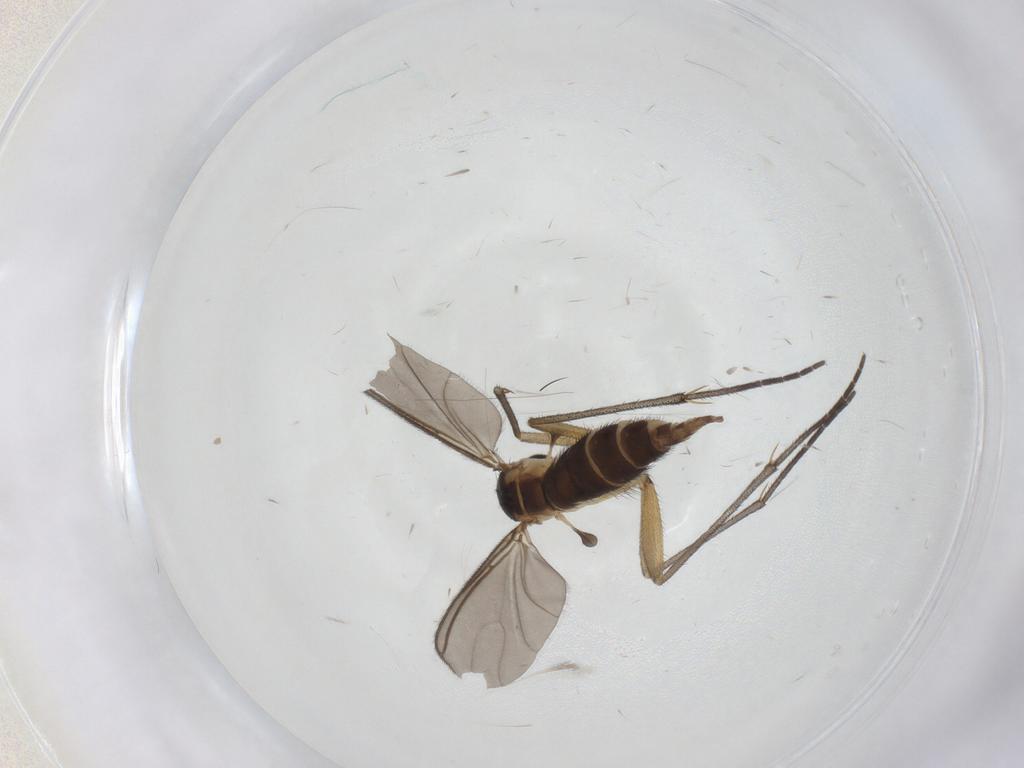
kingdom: Animalia
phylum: Arthropoda
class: Insecta
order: Diptera
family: Sciaridae
